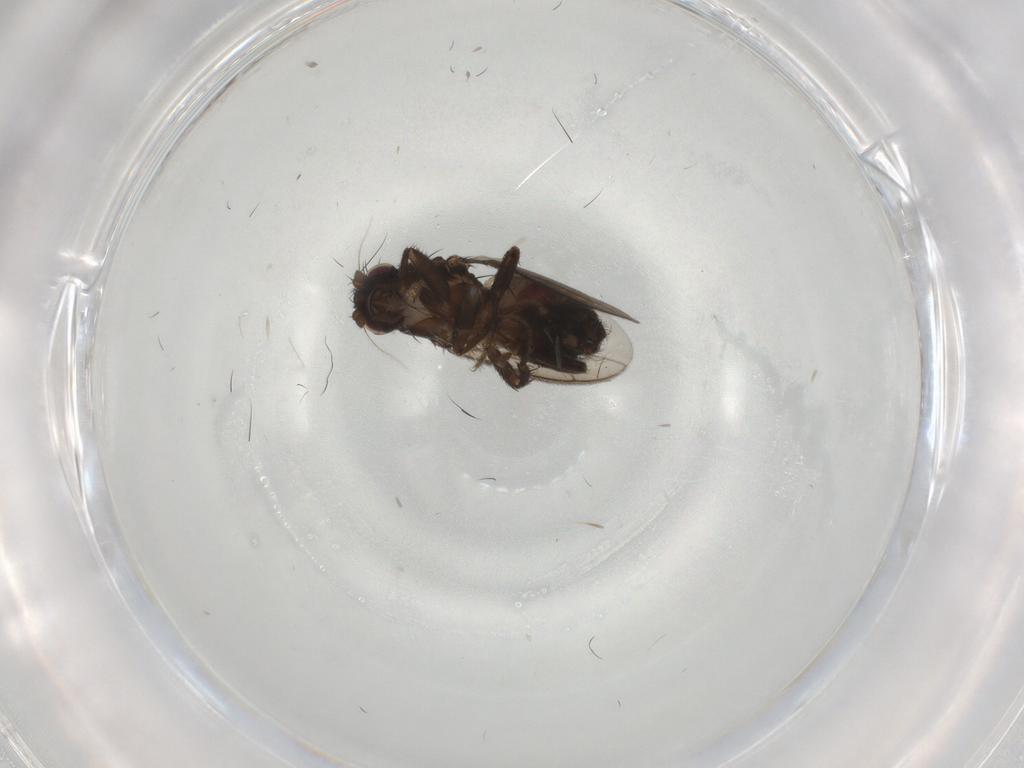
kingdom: Animalia
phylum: Arthropoda
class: Insecta
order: Diptera
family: Sphaeroceridae
